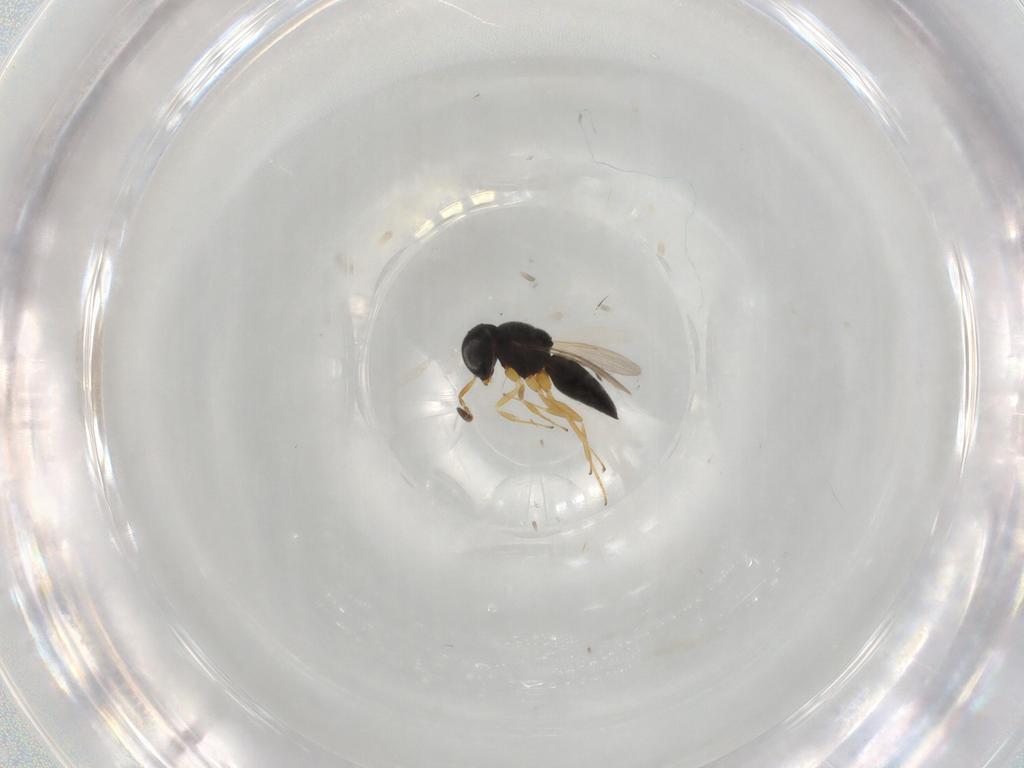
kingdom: Animalia
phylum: Arthropoda
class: Insecta
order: Hymenoptera
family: Scelionidae
